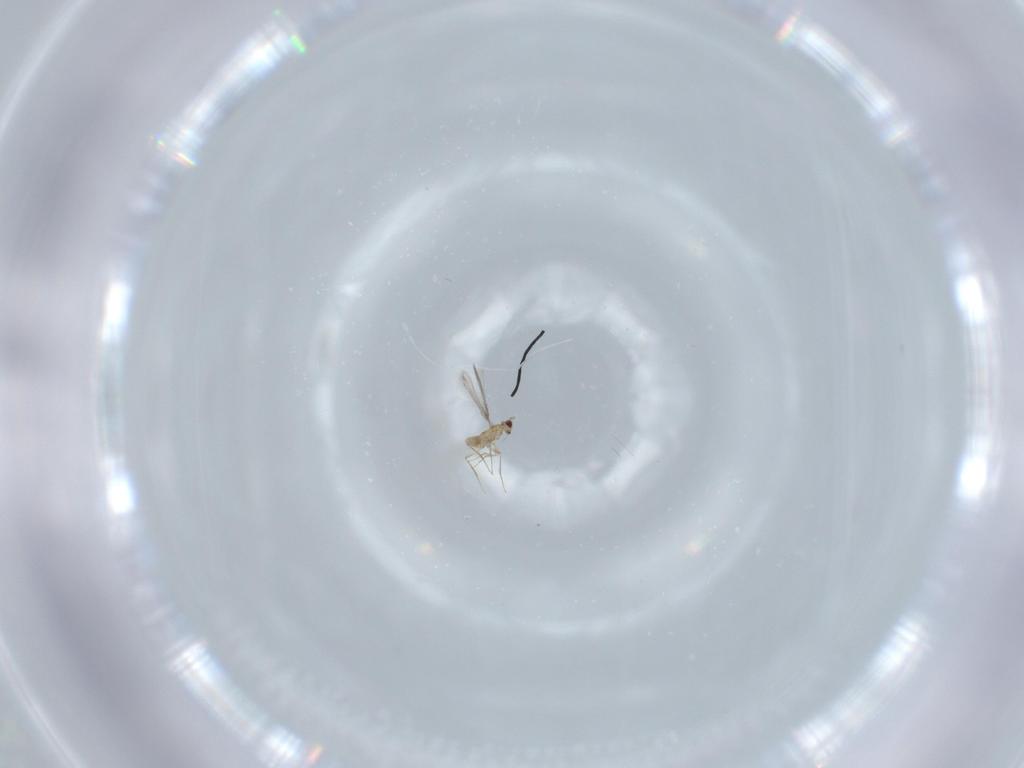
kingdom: Animalia
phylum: Arthropoda
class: Insecta
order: Hymenoptera
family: Mymaridae
